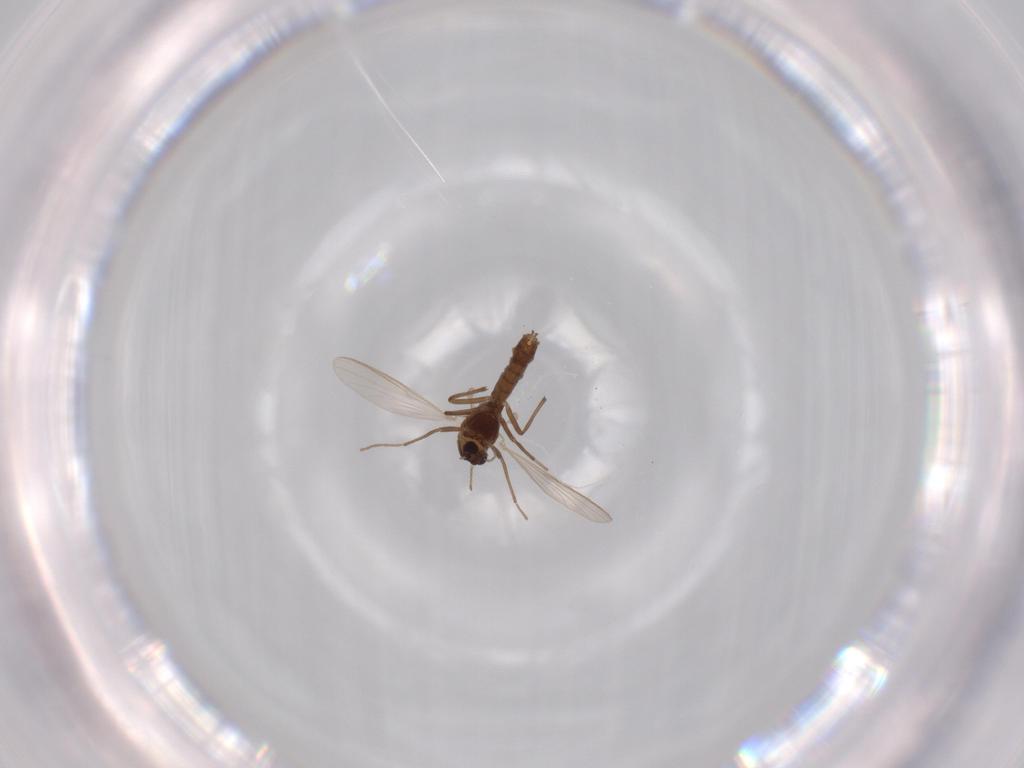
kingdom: Animalia
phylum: Arthropoda
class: Insecta
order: Diptera
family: Chironomidae
